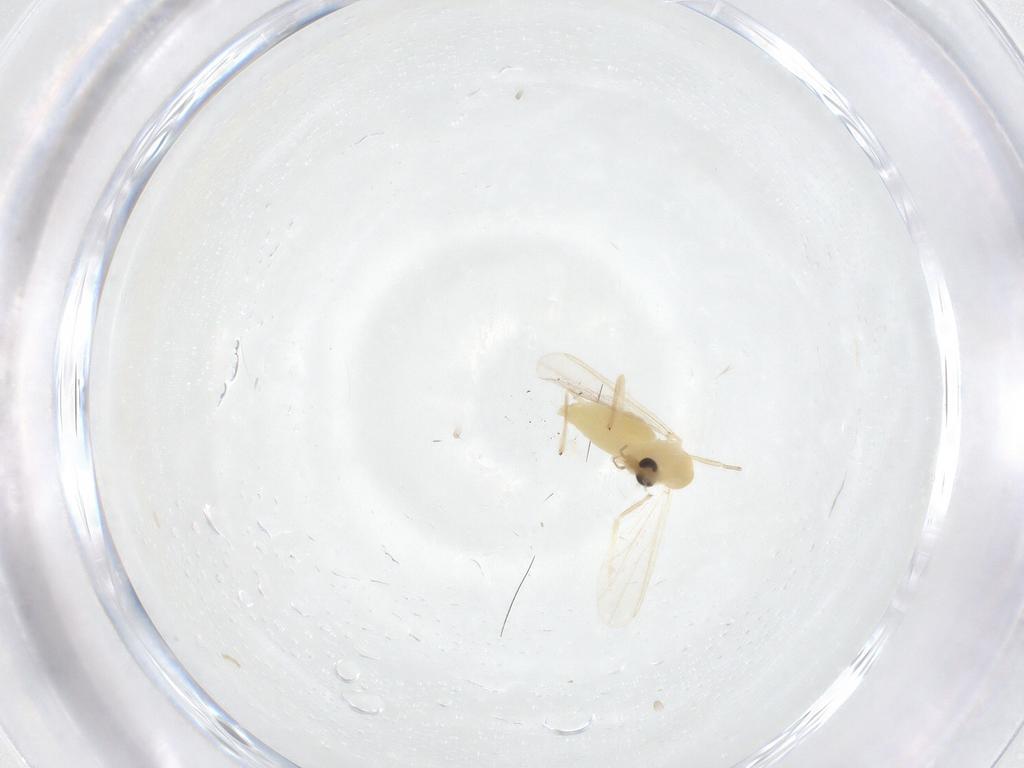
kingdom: Animalia
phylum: Arthropoda
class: Insecta
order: Diptera
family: Chironomidae
